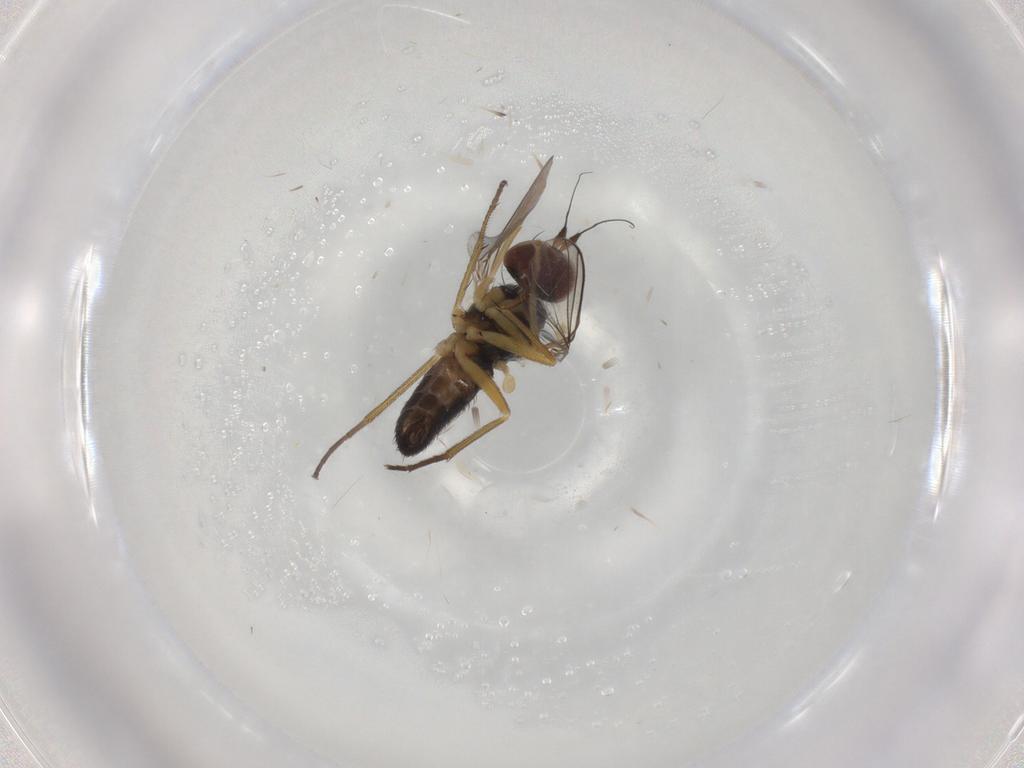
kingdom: Animalia
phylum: Arthropoda
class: Insecta
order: Diptera
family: Dolichopodidae
